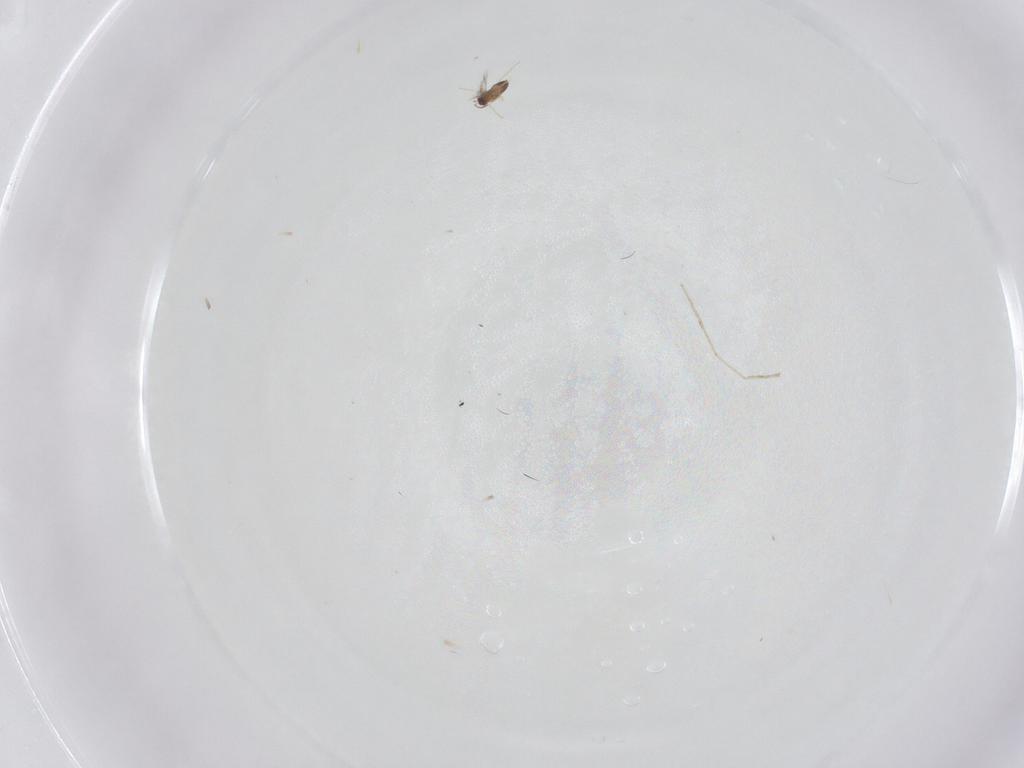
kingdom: Animalia
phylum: Arthropoda
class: Insecta
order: Diptera
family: Cecidomyiidae
